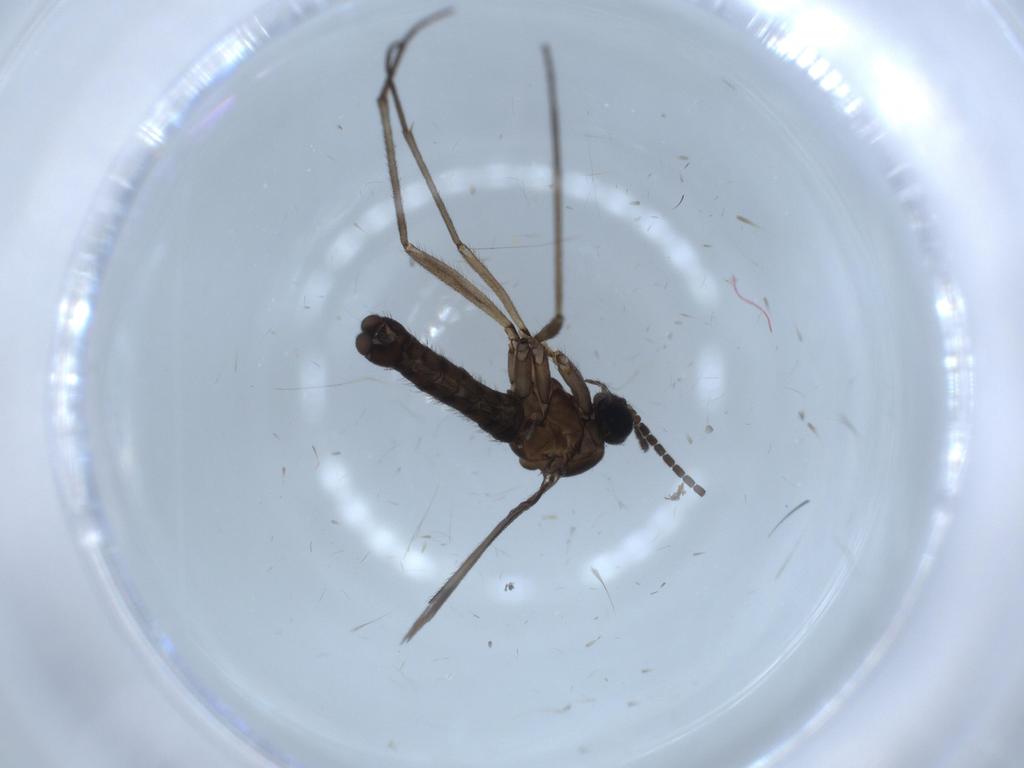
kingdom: Animalia
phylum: Arthropoda
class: Insecta
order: Diptera
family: Sciaridae
